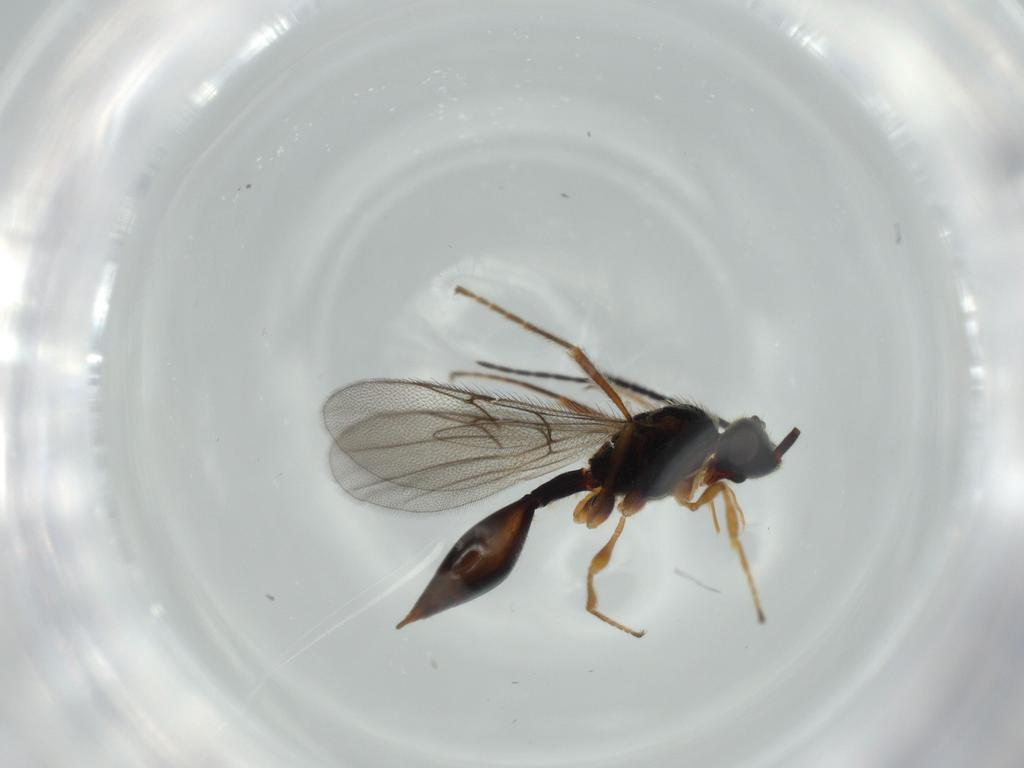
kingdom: Animalia
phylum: Arthropoda
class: Insecta
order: Hymenoptera
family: Diapriidae
